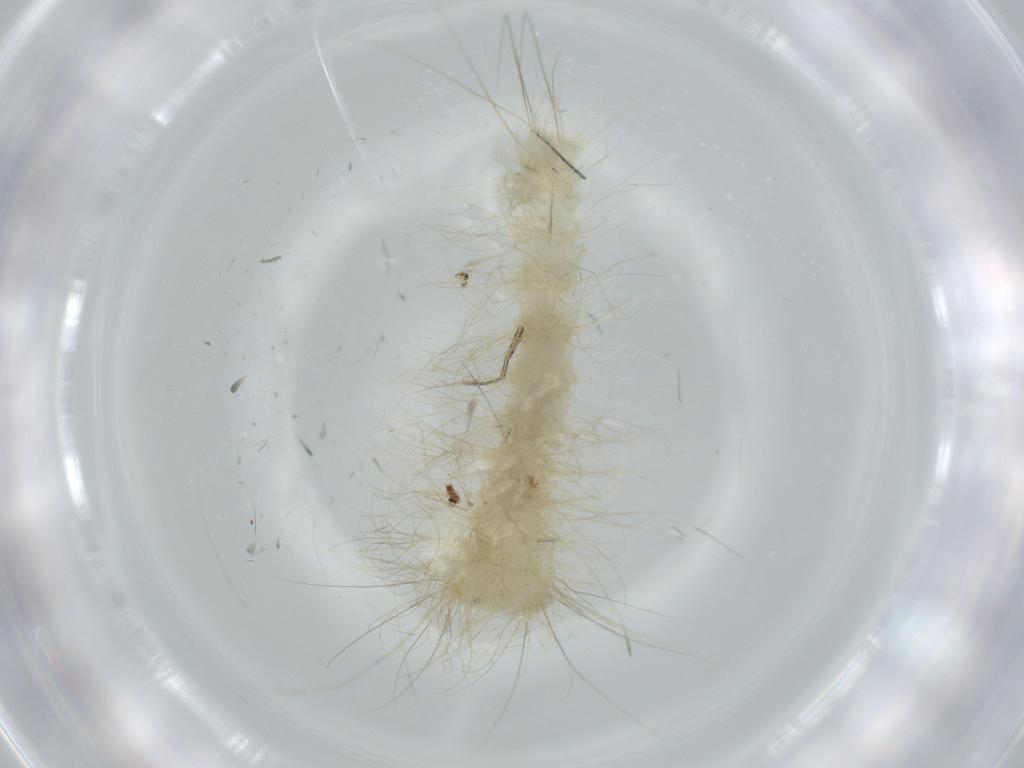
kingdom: Animalia
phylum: Arthropoda
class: Insecta
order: Lepidoptera
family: Apatelodidae
